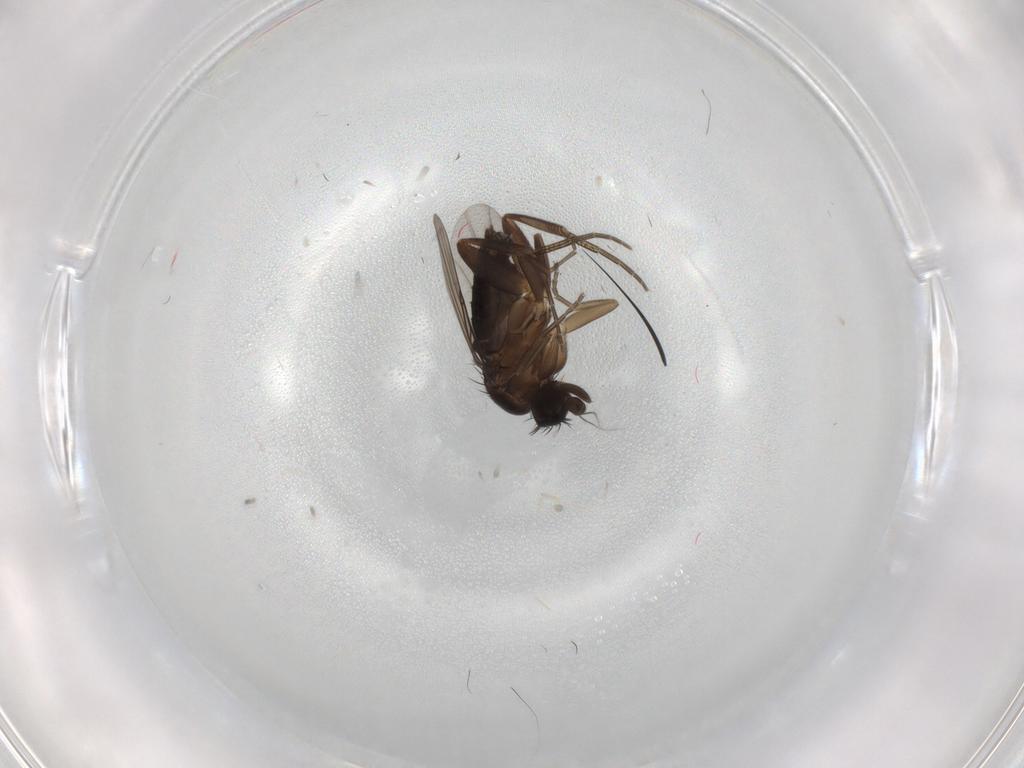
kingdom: Animalia
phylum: Arthropoda
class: Insecta
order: Diptera
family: Phoridae
